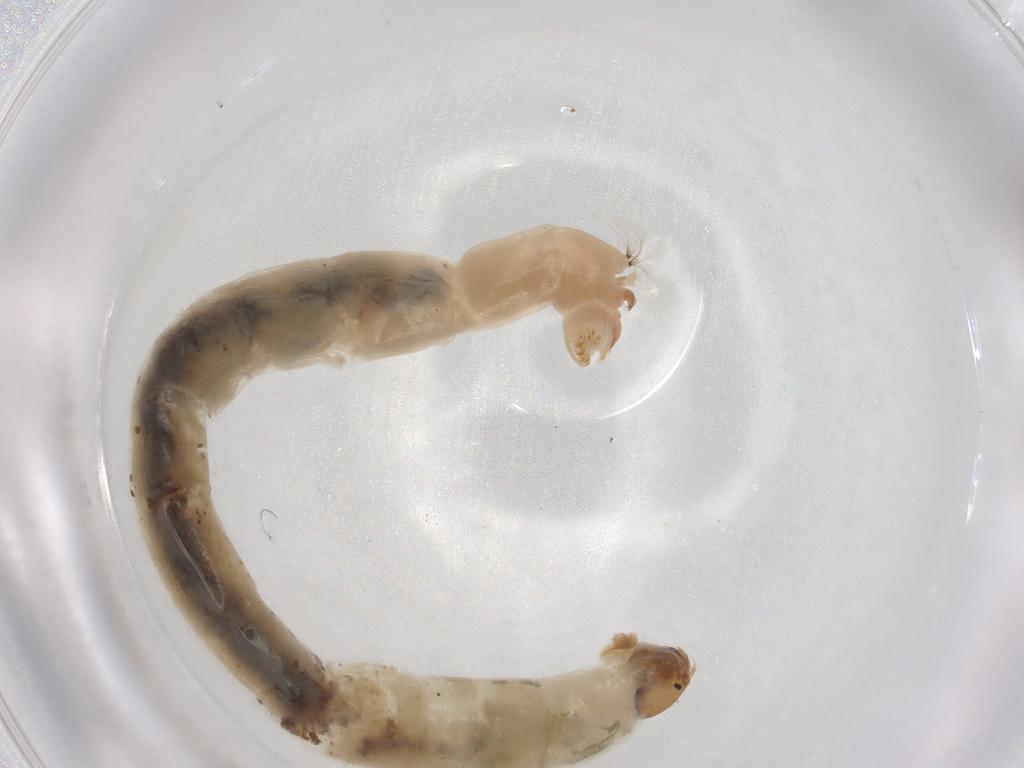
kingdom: Animalia
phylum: Arthropoda
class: Insecta
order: Diptera
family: Chironomidae
